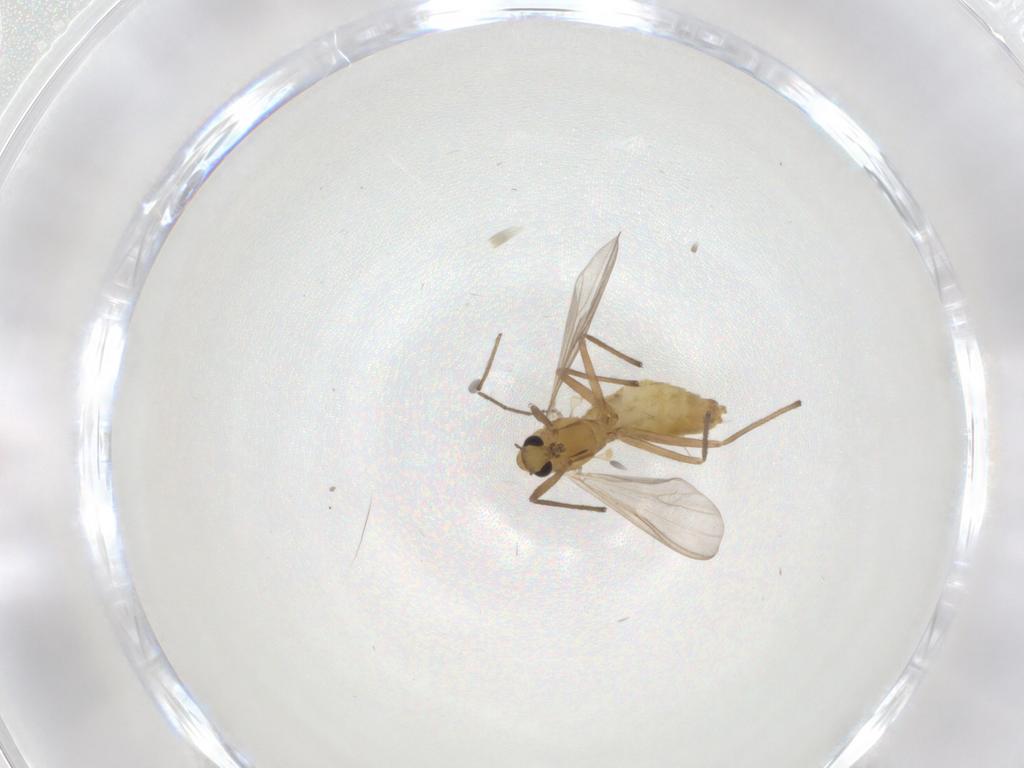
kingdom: Animalia
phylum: Arthropoda
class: Insecta
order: Diptera
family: Chironomidae
